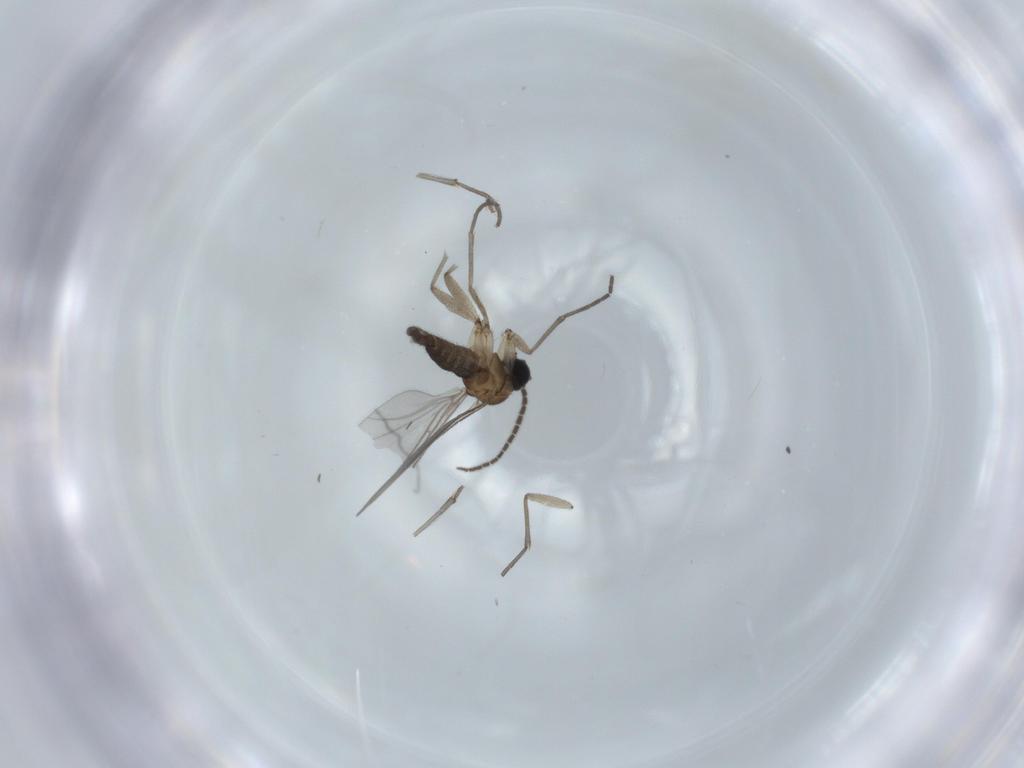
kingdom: Animalia
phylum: Arthropoda
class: Insecta
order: Diptera
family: Sciaridae
